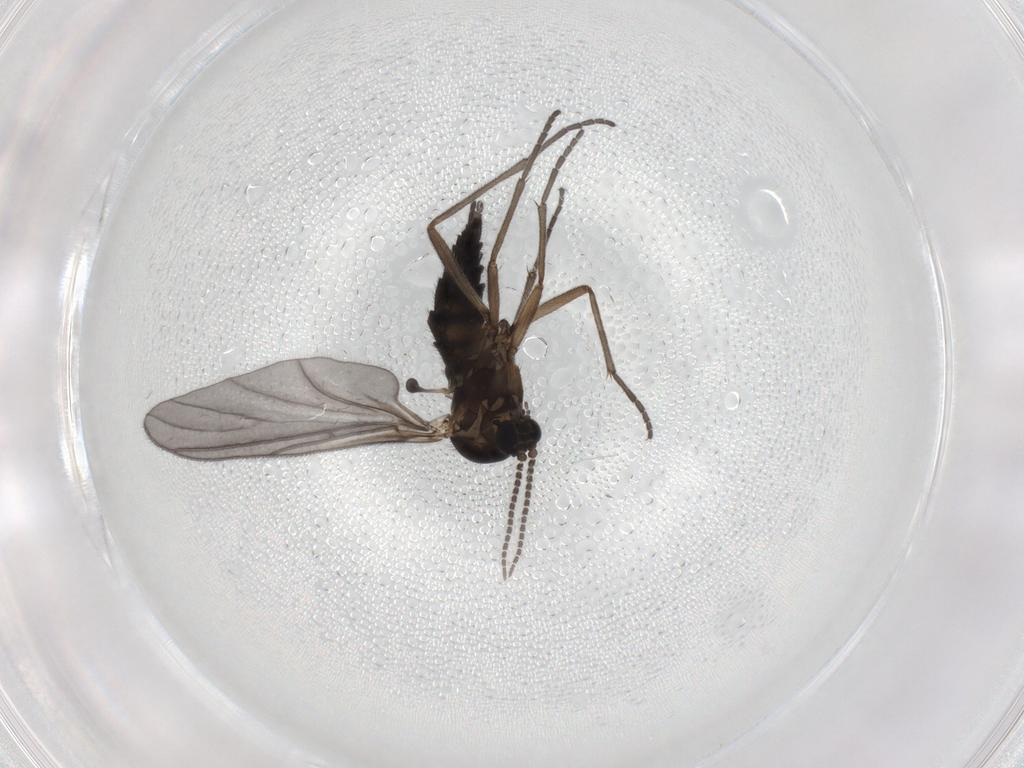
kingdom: Animalia
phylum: Arthropoda
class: Insecta
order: Diptera
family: Sciaridae
